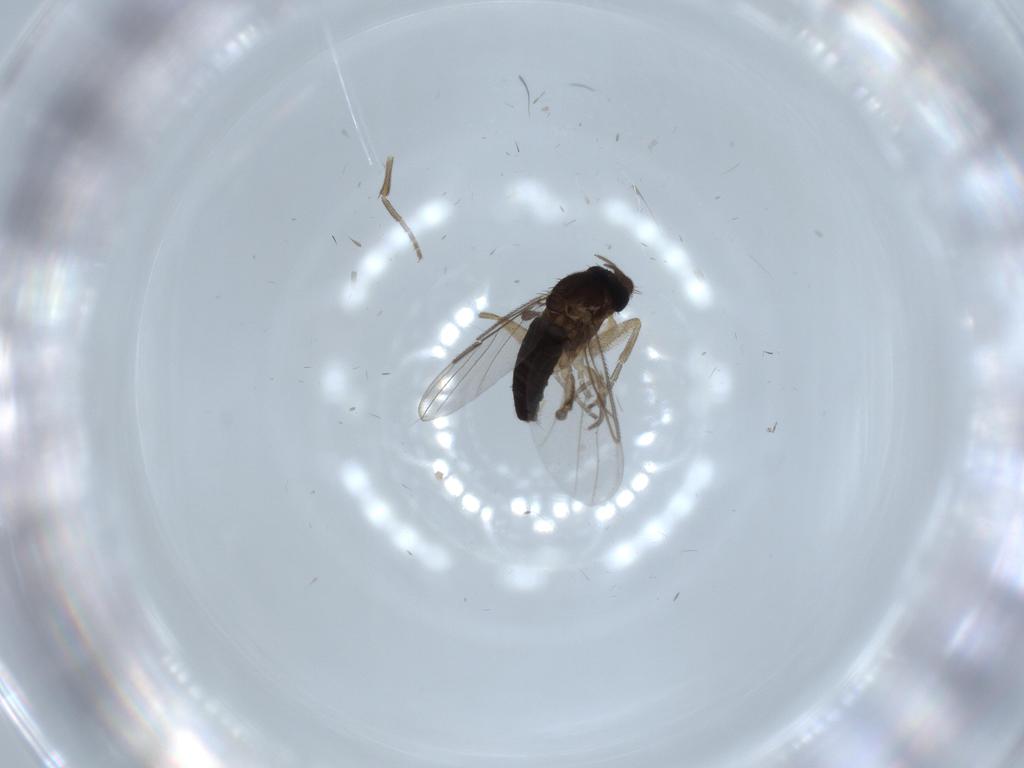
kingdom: Animalia
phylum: Arthropoda
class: Insecta
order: Diptera
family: Phoridae
